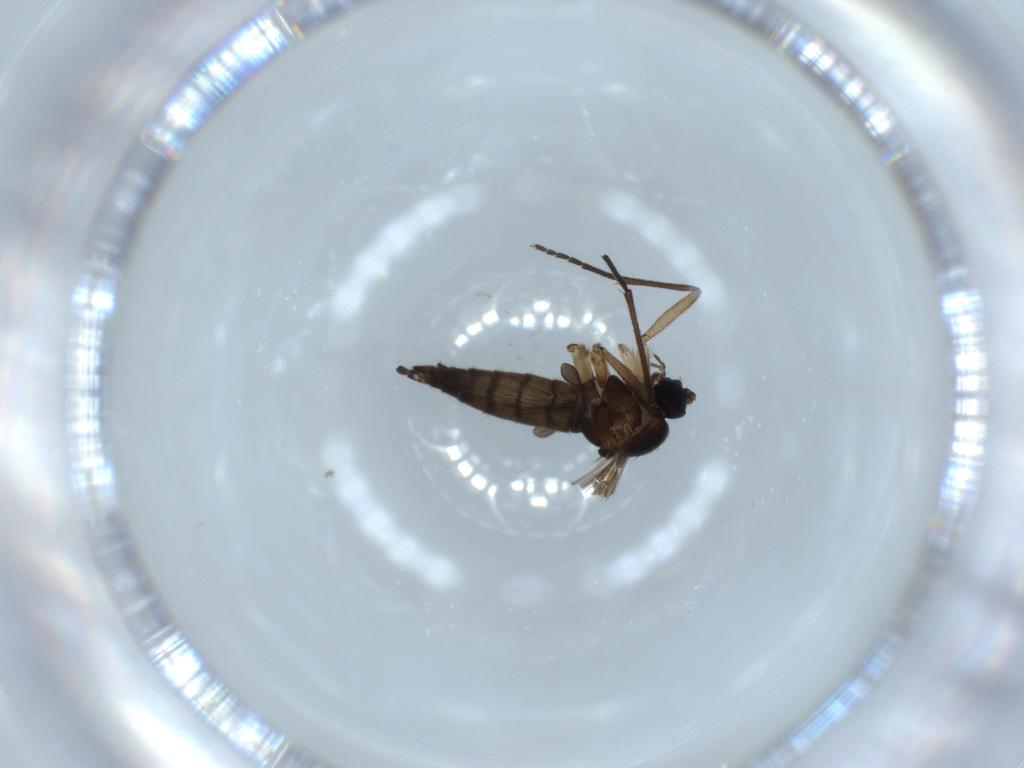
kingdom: Animalia
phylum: Arthropoda
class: Insecta
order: Diptera
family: Sciaridae
